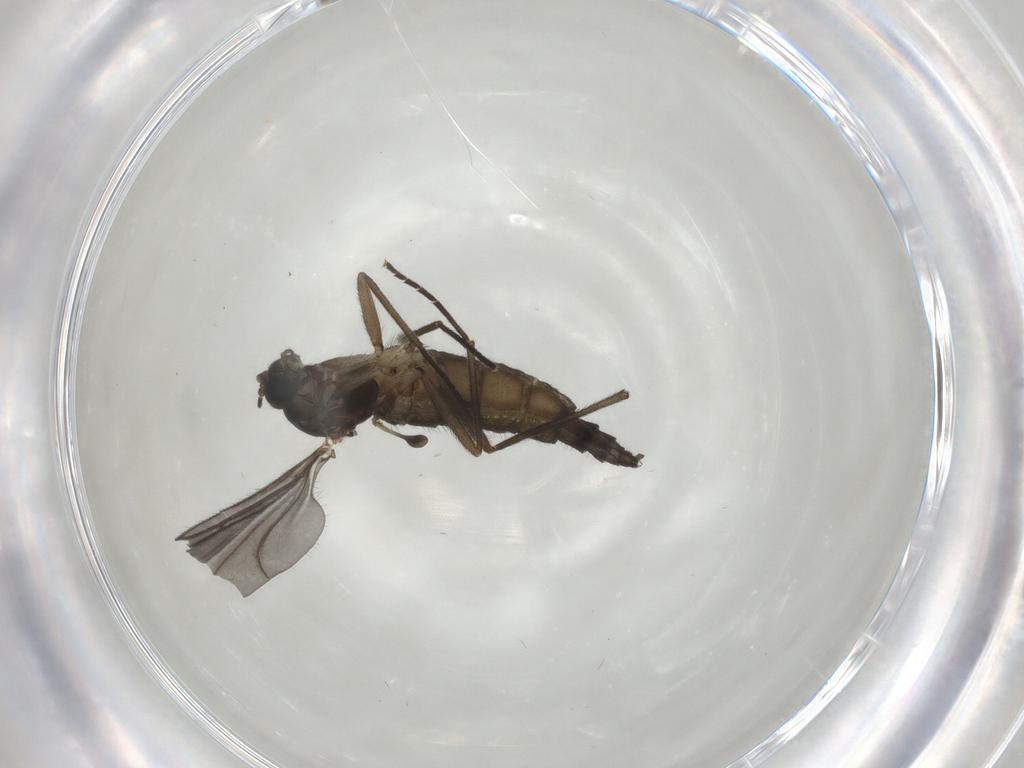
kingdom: Animalia
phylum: Arthropoda
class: Insecta
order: Diptera
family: Sciaridae
